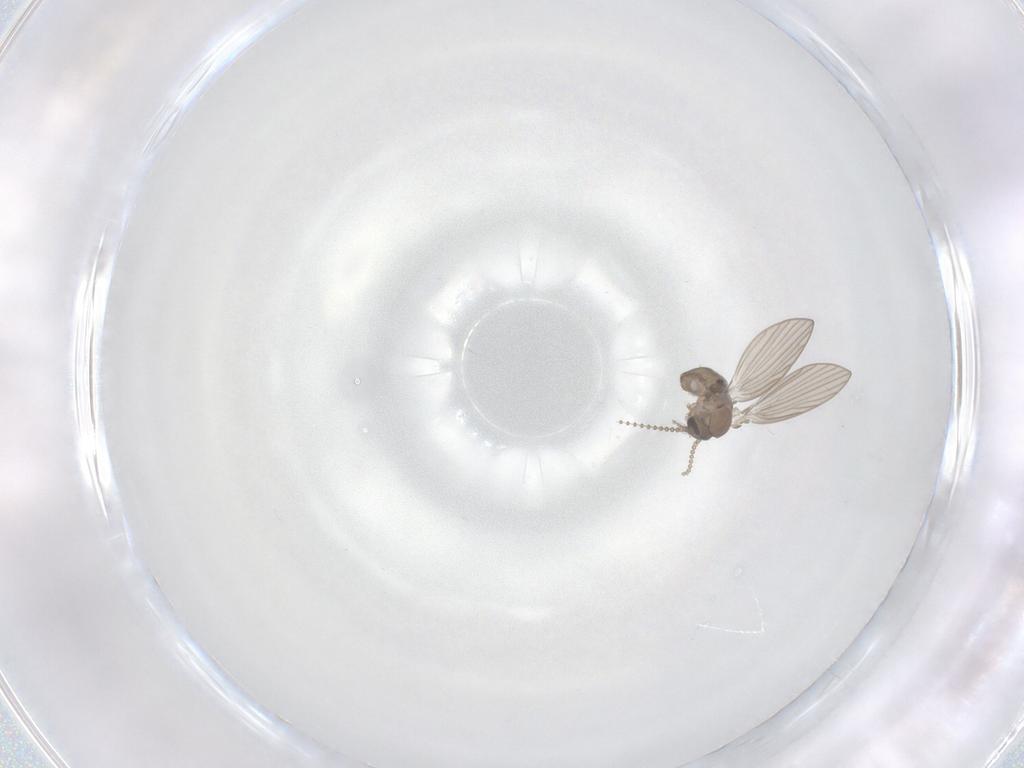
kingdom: Animalia
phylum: Arthropoda
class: Insecta
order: Diptera
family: Psychodidae
